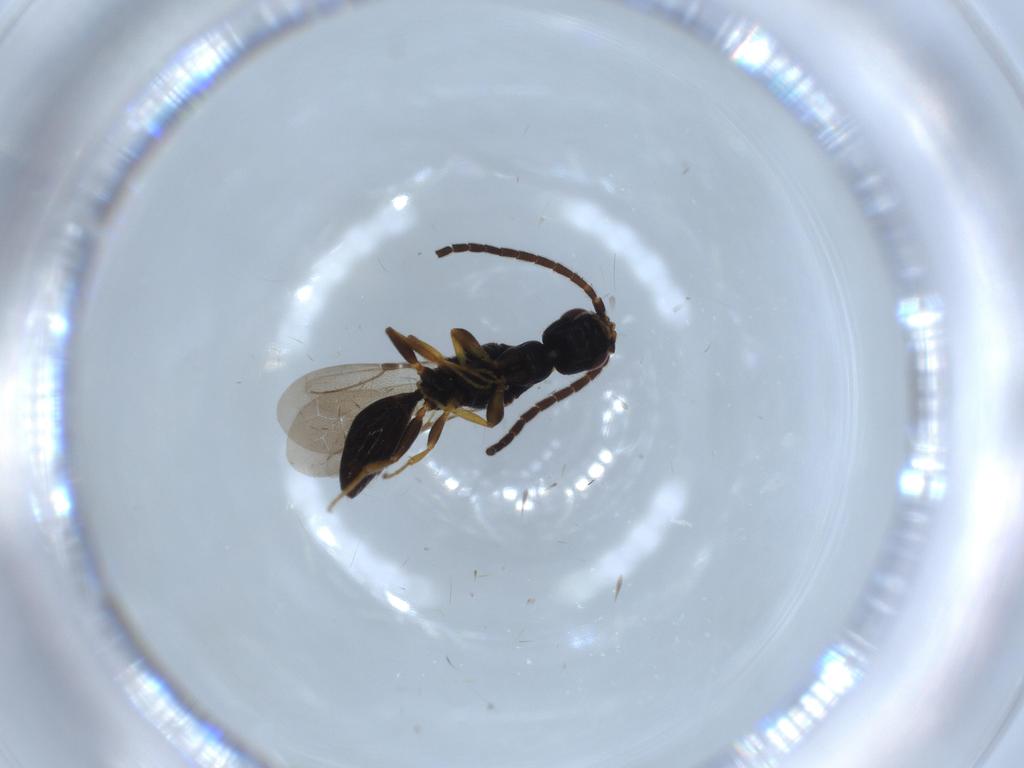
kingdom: Animalia
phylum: Arthropoda
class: Insecta
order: Hymenoptera
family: Bethylidae
